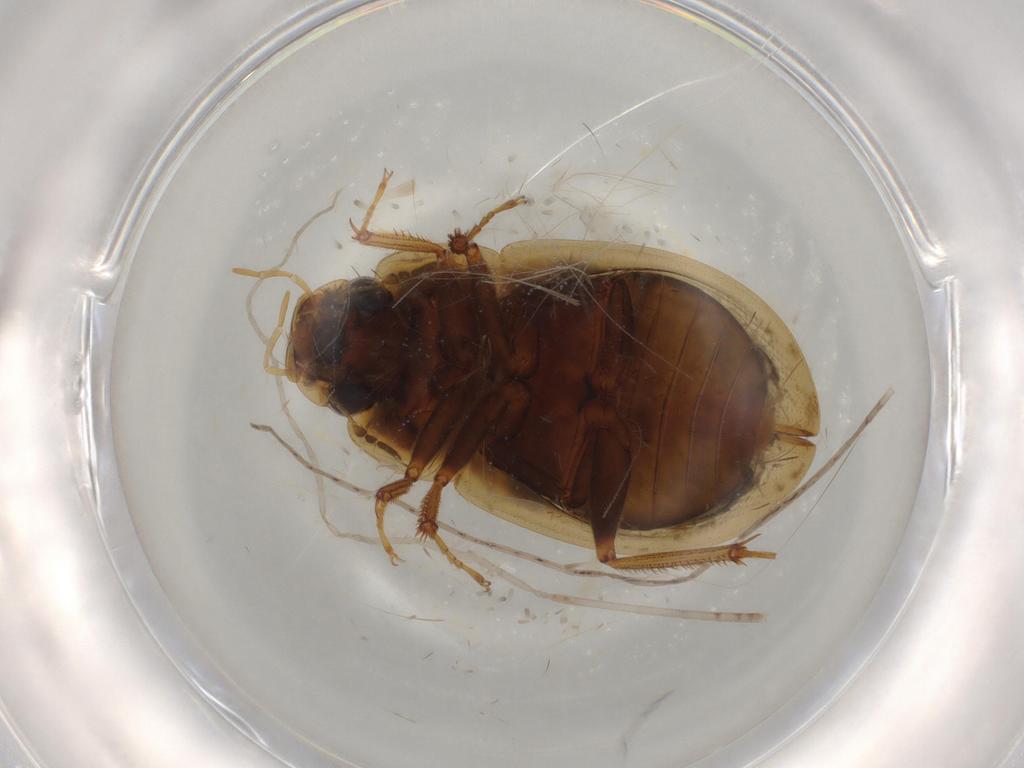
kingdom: Animalia
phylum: Arthropoda
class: Insecta
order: Coleoptera
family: Hydrophilidae
